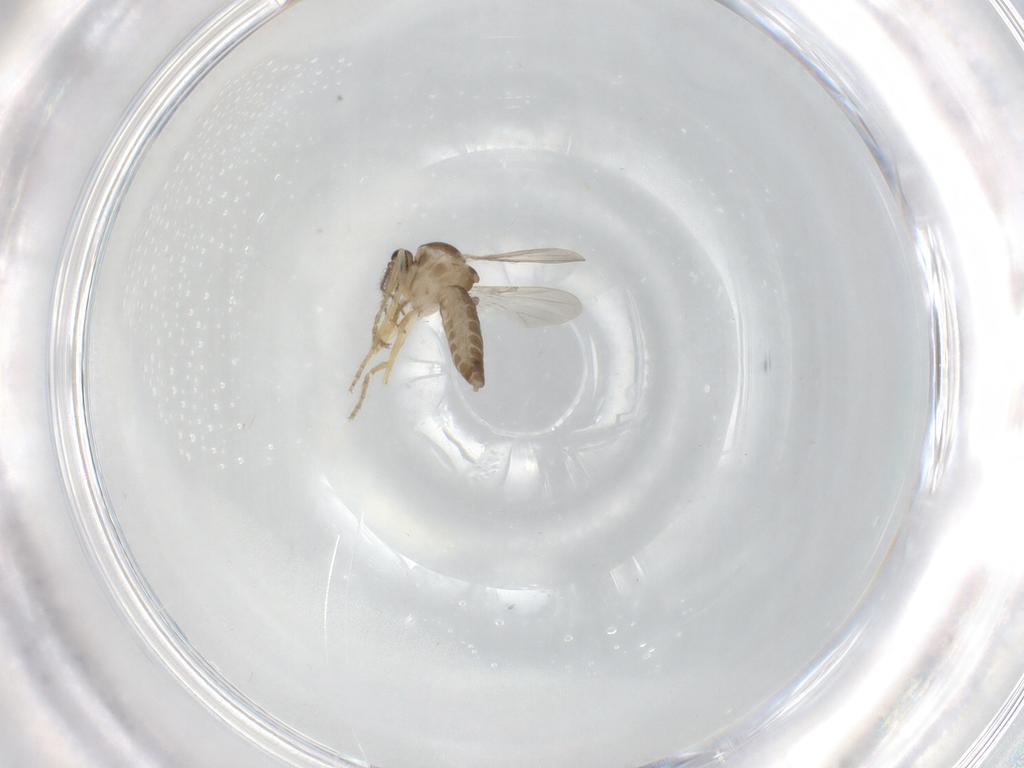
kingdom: Animalia
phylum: Arthropoda
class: Insecta
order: Diptera
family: Ceratopogonidae
